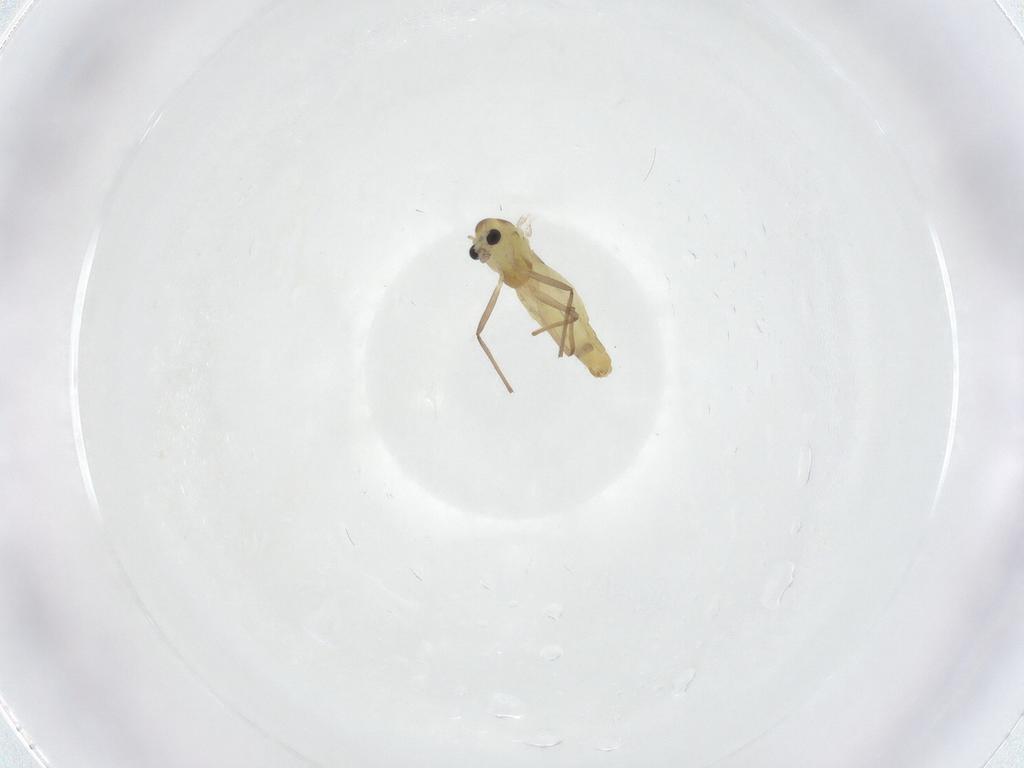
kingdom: Animalia
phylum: Arthropoda
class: Insecta
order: Diptera
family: Chironomidae
